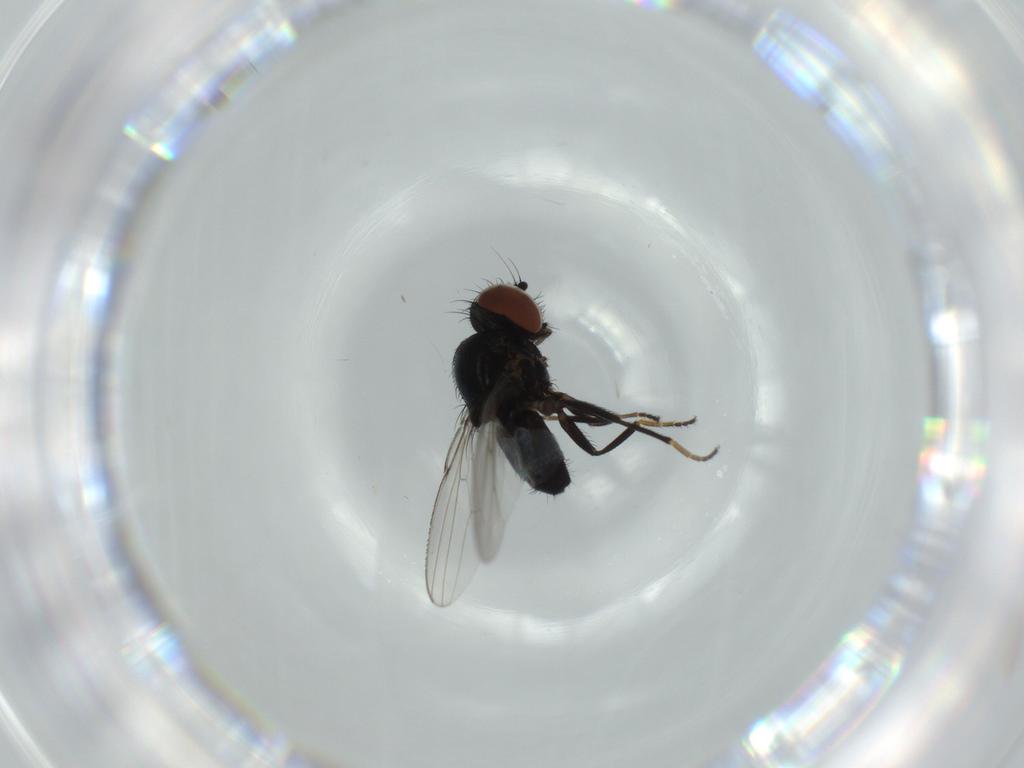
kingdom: Animalia
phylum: Arthropoda
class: Insecta
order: Diptera
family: Milichiidae
